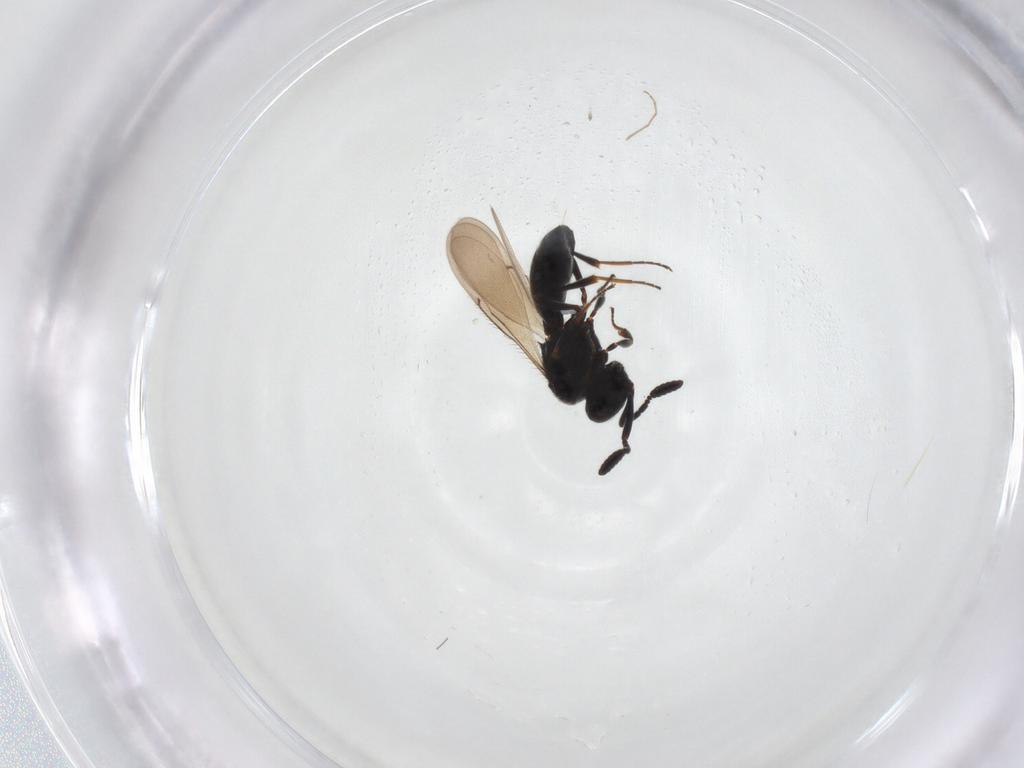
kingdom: Animalia
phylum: Arthropoda
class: Insecta
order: Hymenoptera
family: Scelionidae
